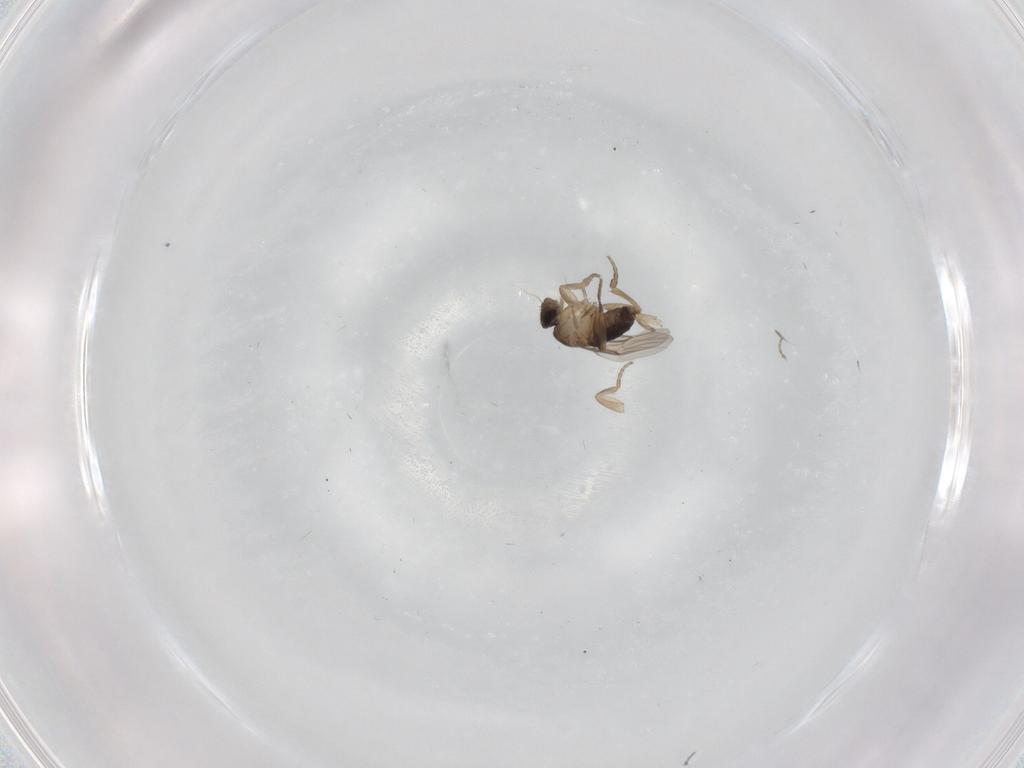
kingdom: Animalia
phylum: Arthropoda
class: Insecta
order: Diptera
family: Phoridae
